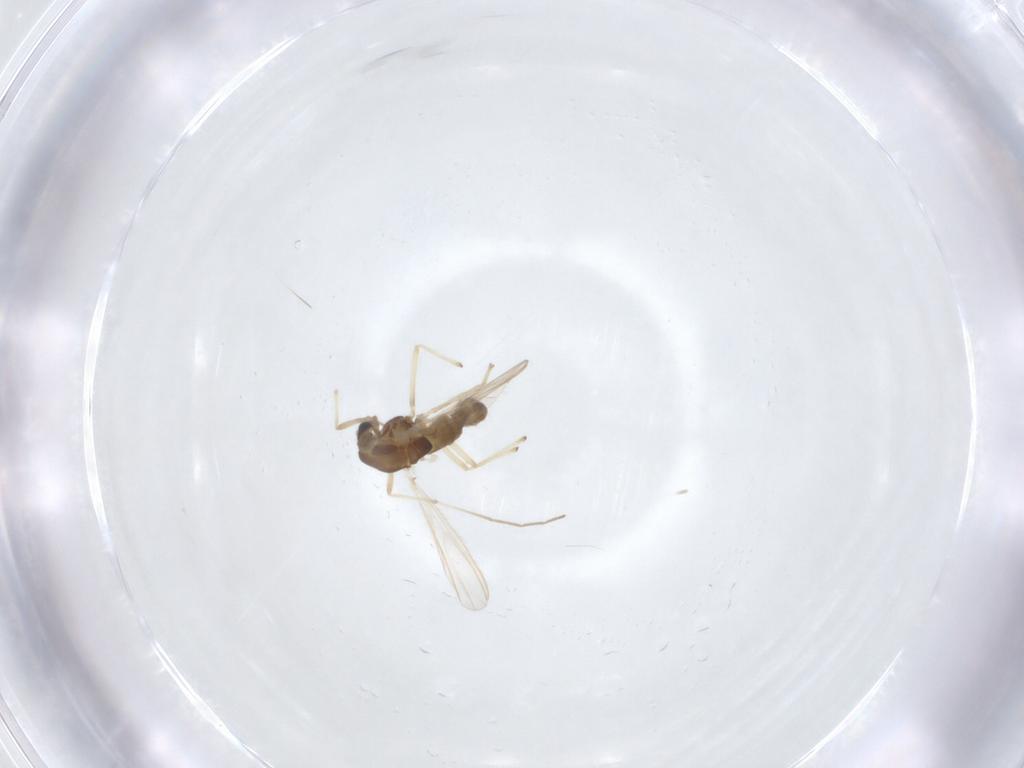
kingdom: Animalia
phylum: Arthropoda
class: Insecta
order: Diptera
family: Chironomidae
